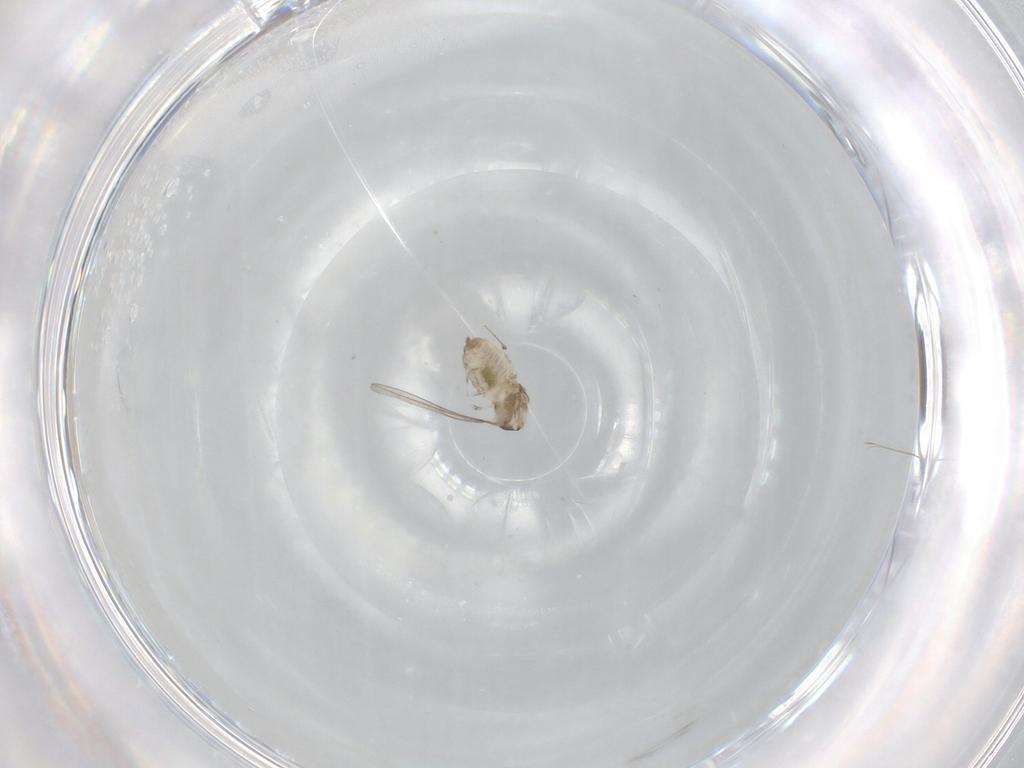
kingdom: Animalia
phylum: Arthropoda
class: Insecta
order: Diptera
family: Cecidomyiidae
